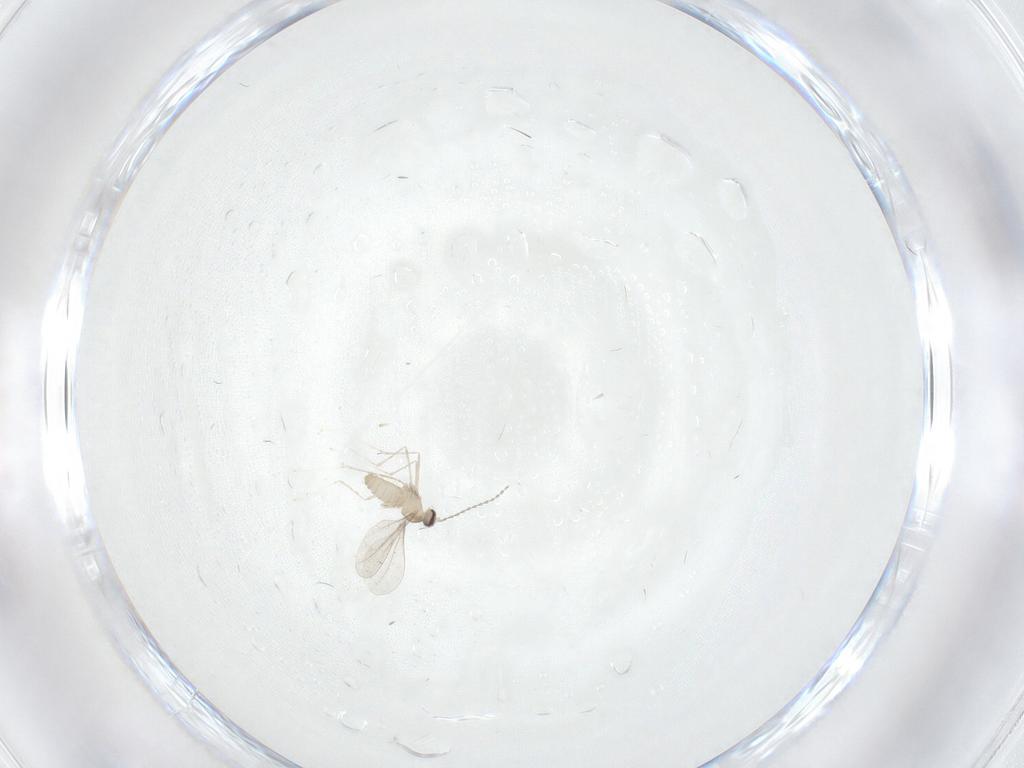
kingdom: Animalia
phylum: Arthropoda
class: Insecta
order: Diptera
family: Cecidomyiidae
